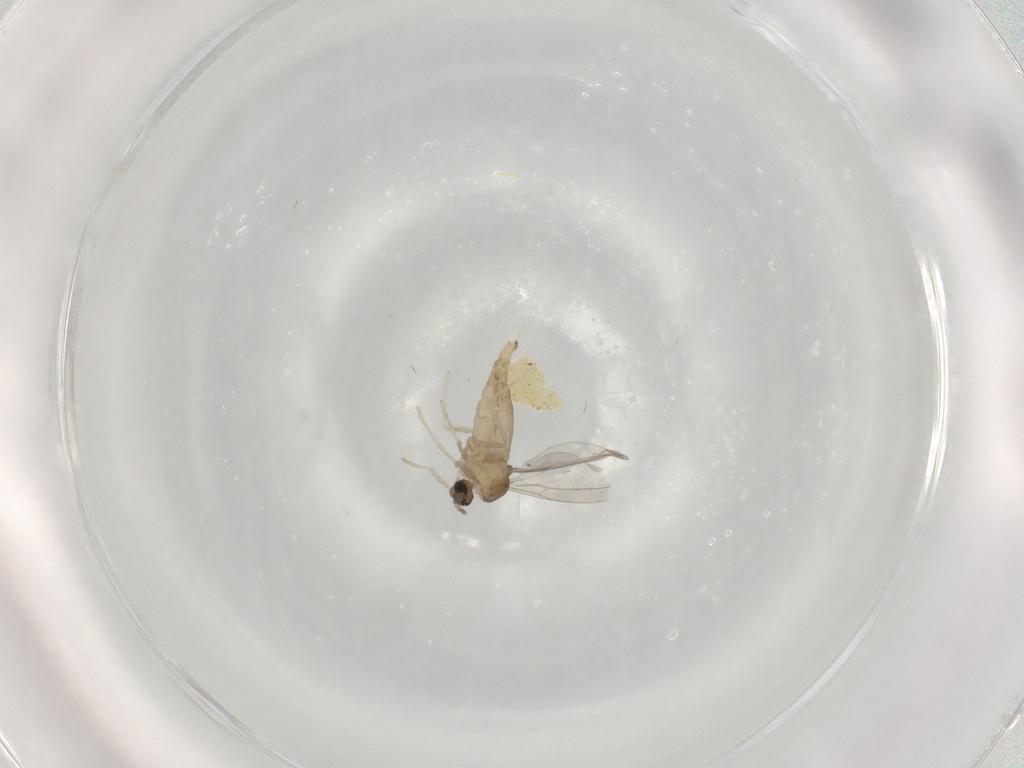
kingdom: Animalia
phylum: Arthropoda
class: Insecta
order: Diptera
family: Cecidomyiidae
